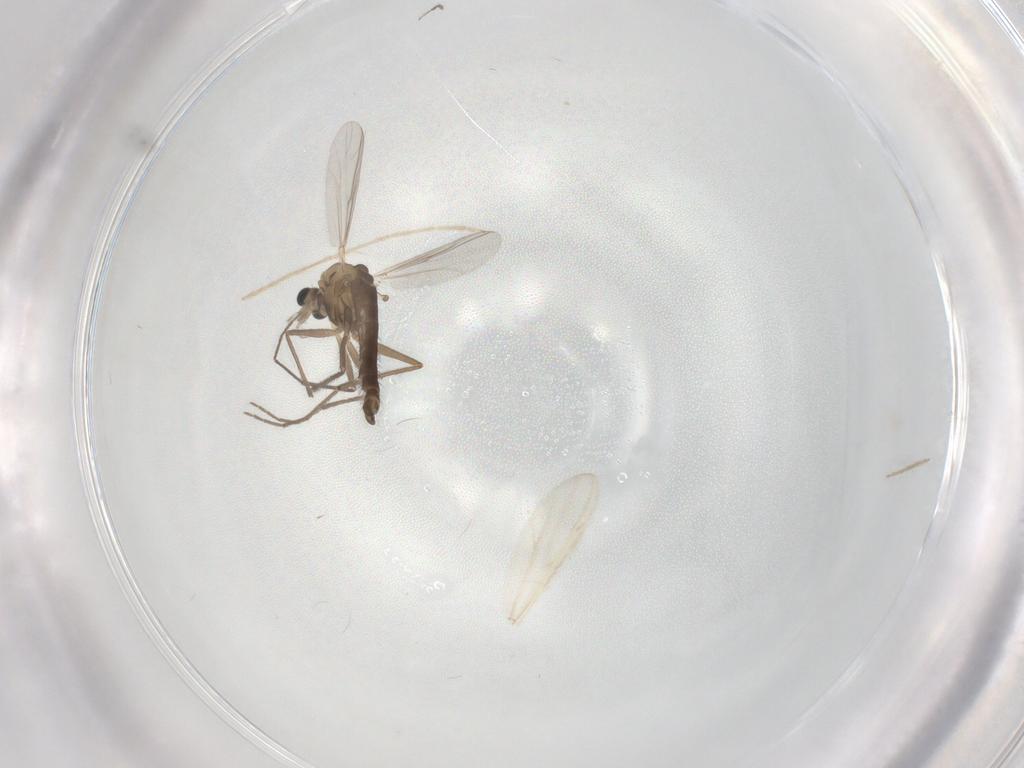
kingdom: Animalia
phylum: Arthropoda
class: Insecta
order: Diptera
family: Chironomidae
